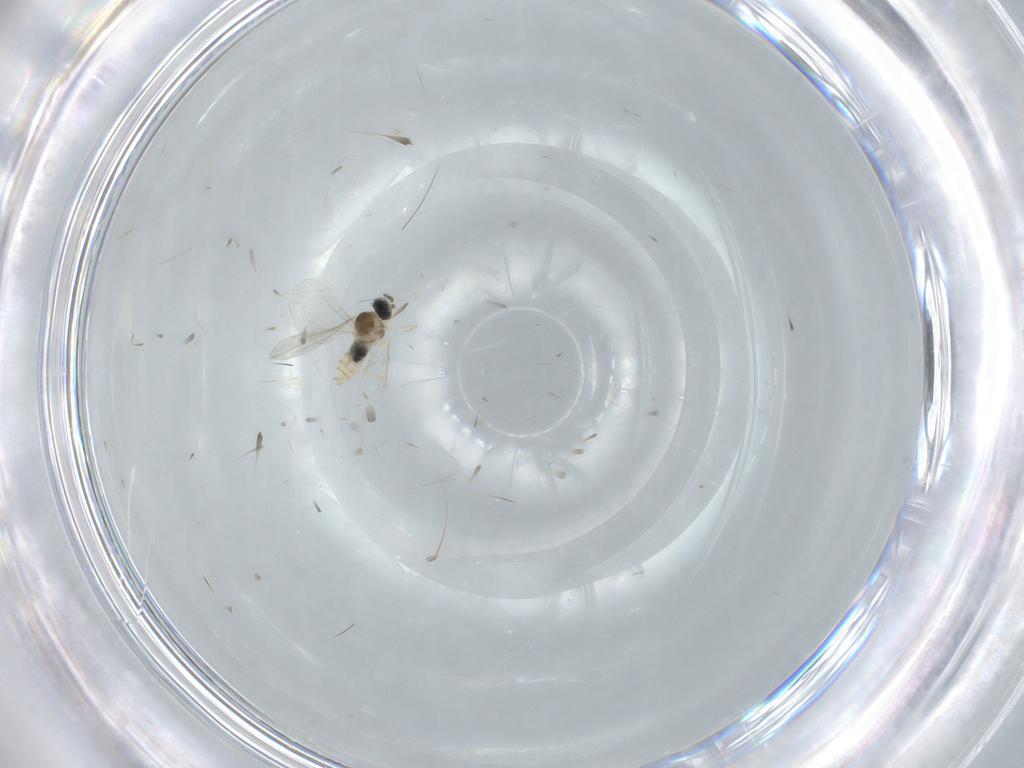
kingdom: Animalia
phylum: Arthropoda
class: Insecta
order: Diptera
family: Cecidomyiidae
